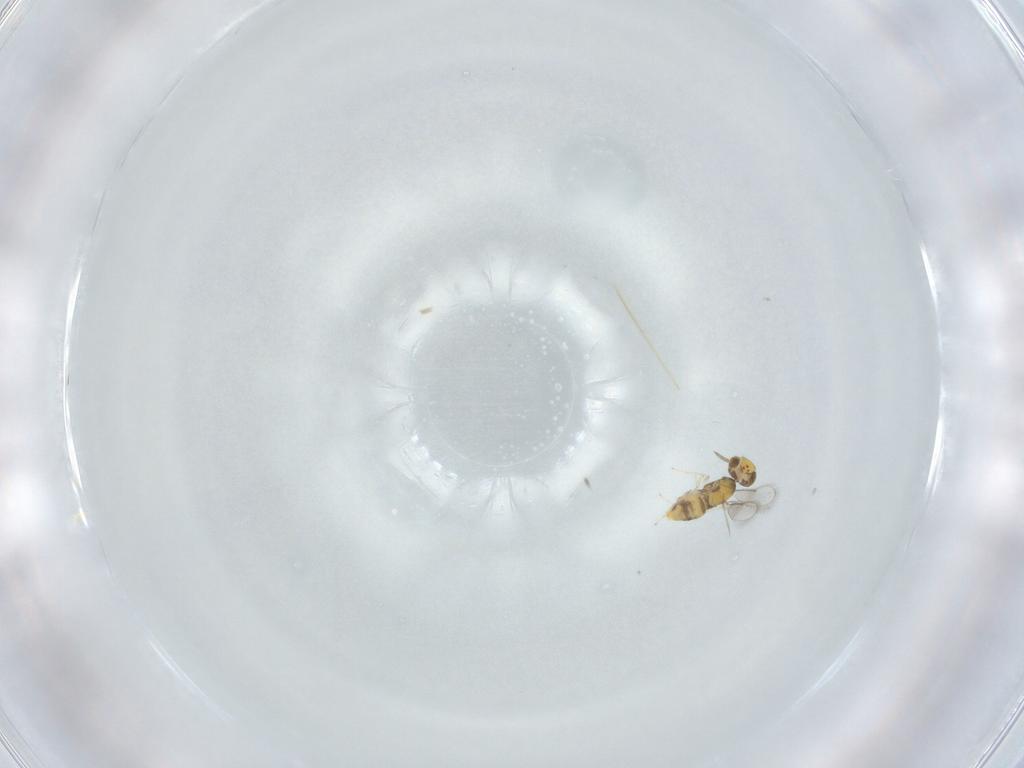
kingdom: Animalia
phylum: Arthropoda
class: Insecta
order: Hymenoptera
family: Aphelinidae
